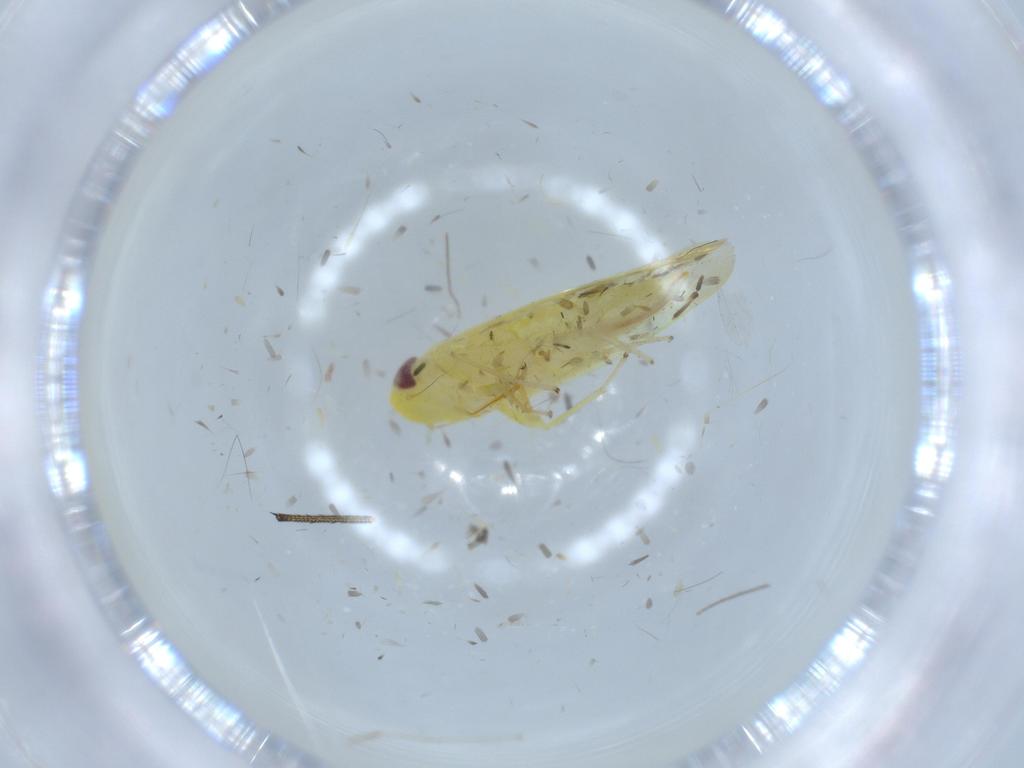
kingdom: Animalia
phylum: Arthropoda
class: Insecta
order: Hemiptera
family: Cicadellidae
